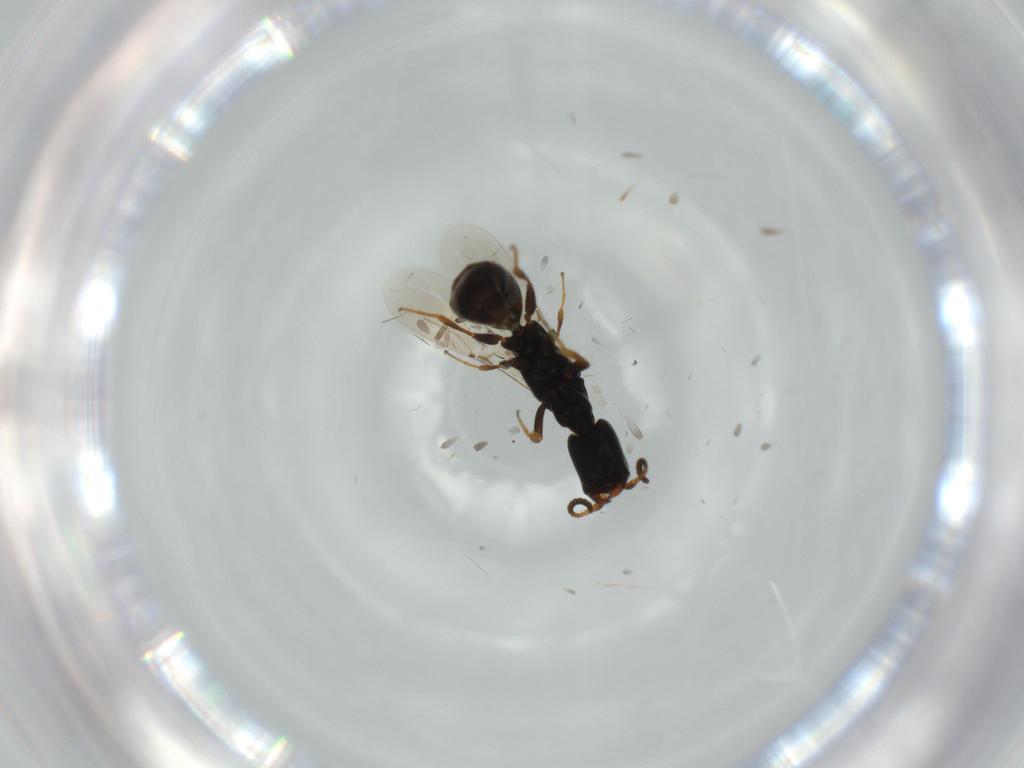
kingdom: Animalia
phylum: Arthropoda
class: Insecta
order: Hymenoptera
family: Bethylidae
